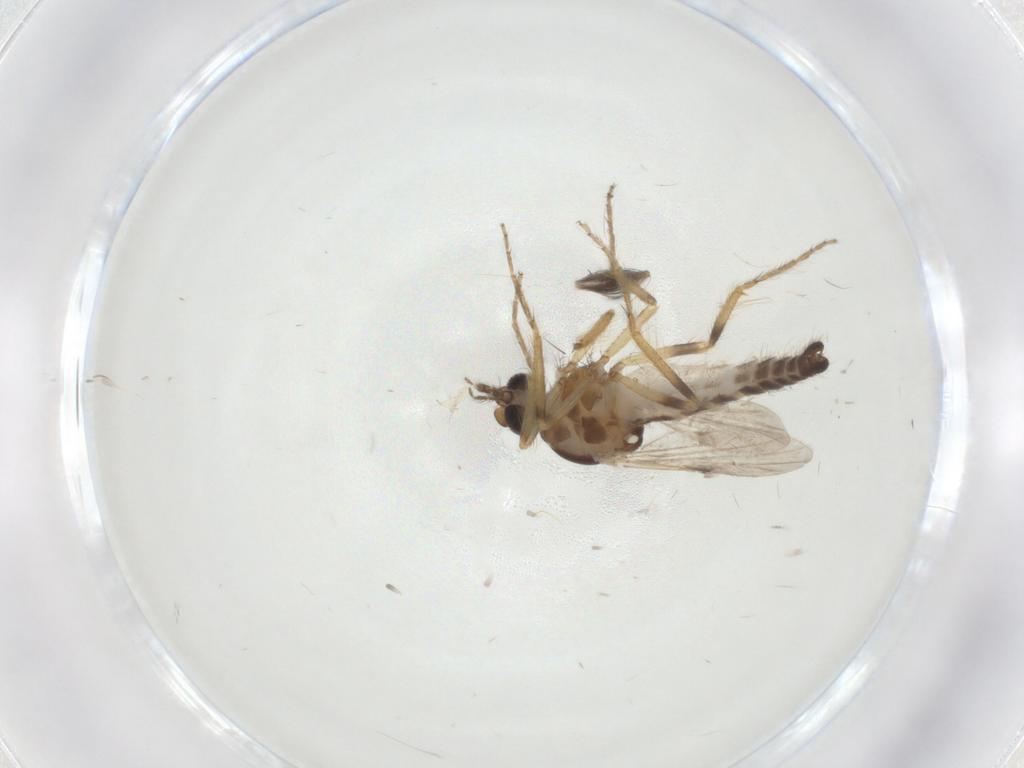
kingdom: Animalia
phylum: Arthropoda
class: Insecta
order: Diptera
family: Ceratopogonidae
